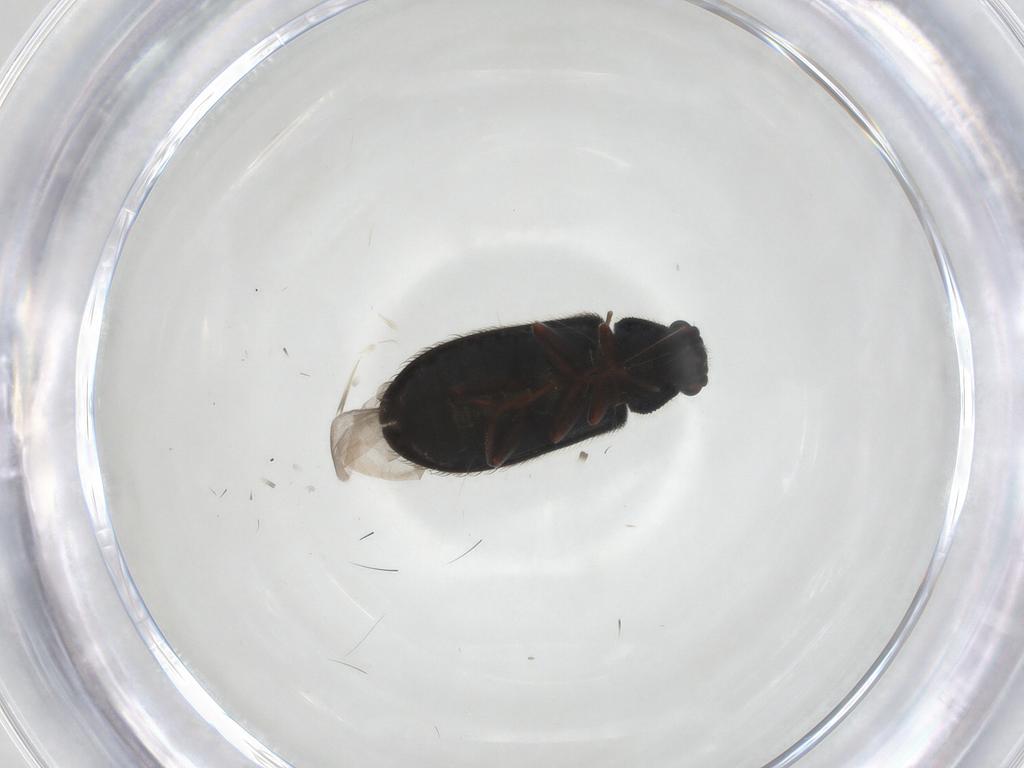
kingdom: Animalia
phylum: Arthropoda
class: Insecta
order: Coleoptera
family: Melyridae
